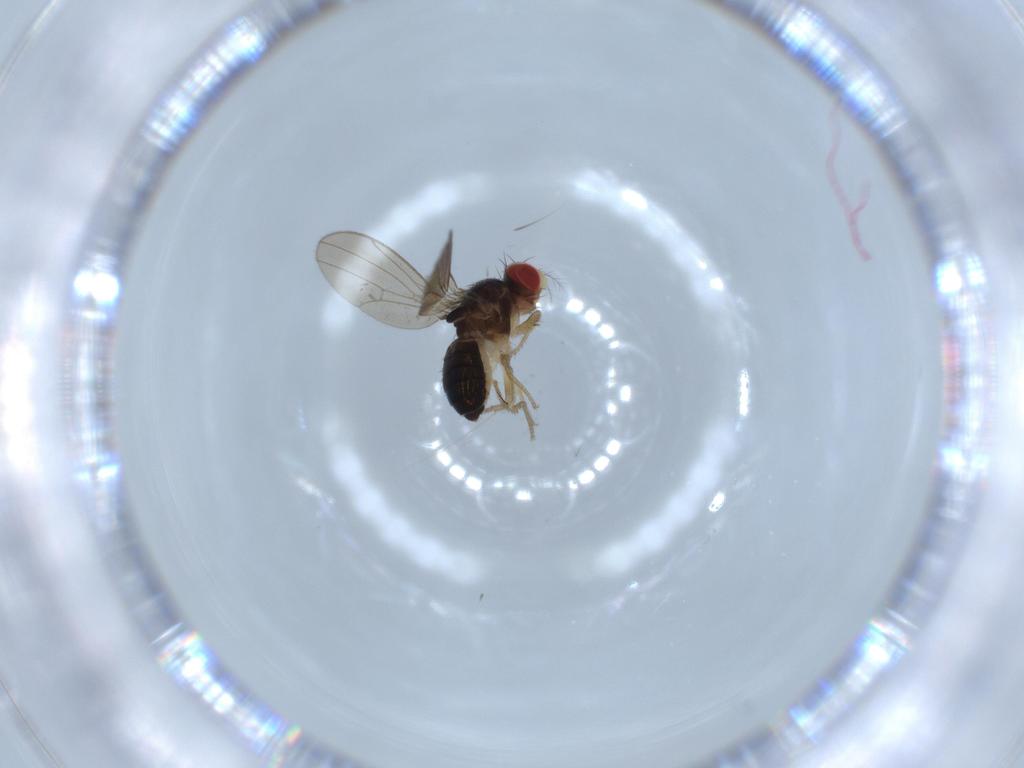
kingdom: Animalia
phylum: Arthropoda
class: Insecta
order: Diptera
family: Drosophilidae
